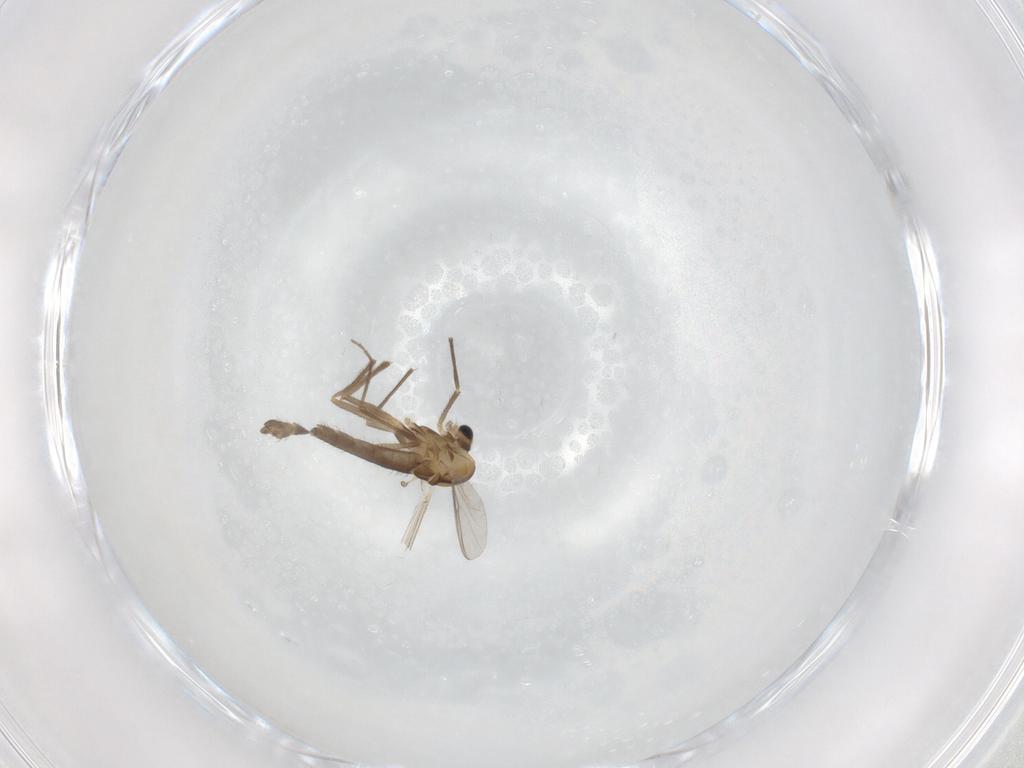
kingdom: Animalia
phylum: Arthropoda
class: Insecta
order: Diptera
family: Chironomidae
